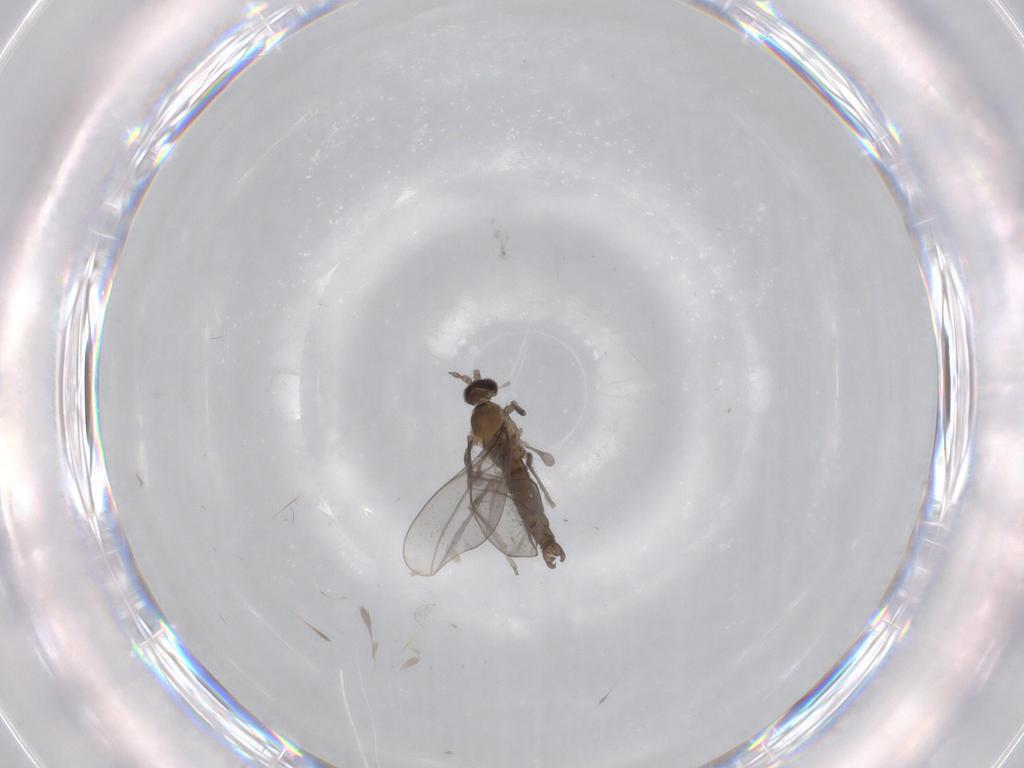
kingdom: Animalia
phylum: Arthropoda
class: Insecta
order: Diptera
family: Cecidomyiidae
